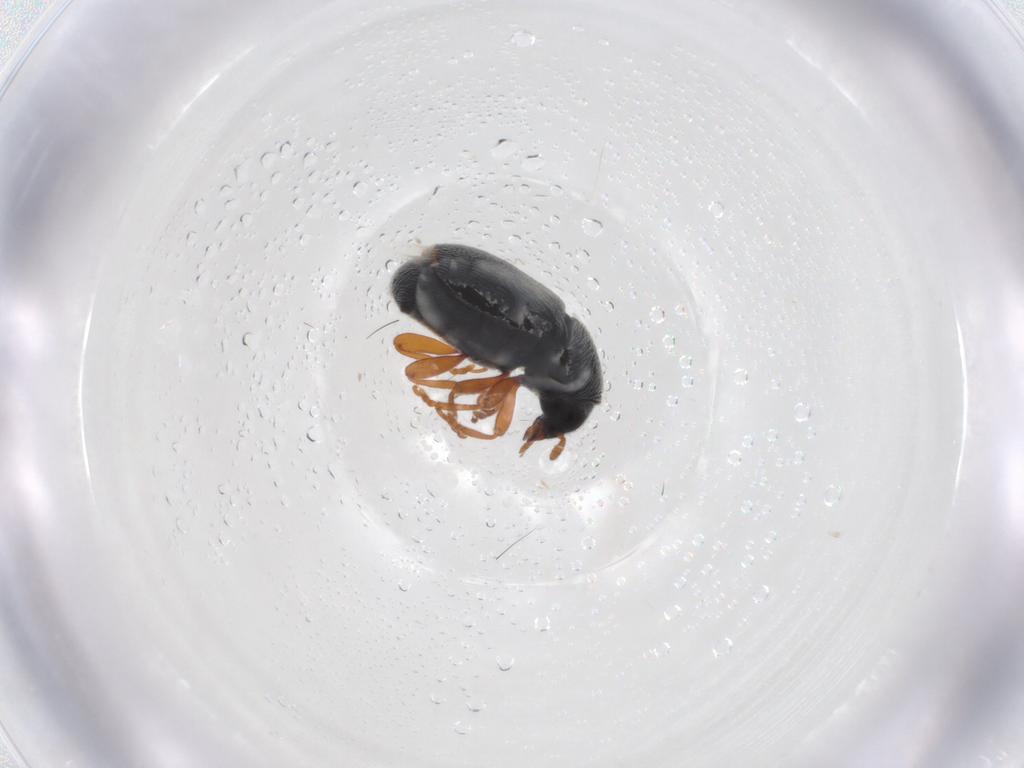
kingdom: Animalia
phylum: Arthropoda
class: Insecta
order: Coleoptera
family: Anthribidae
